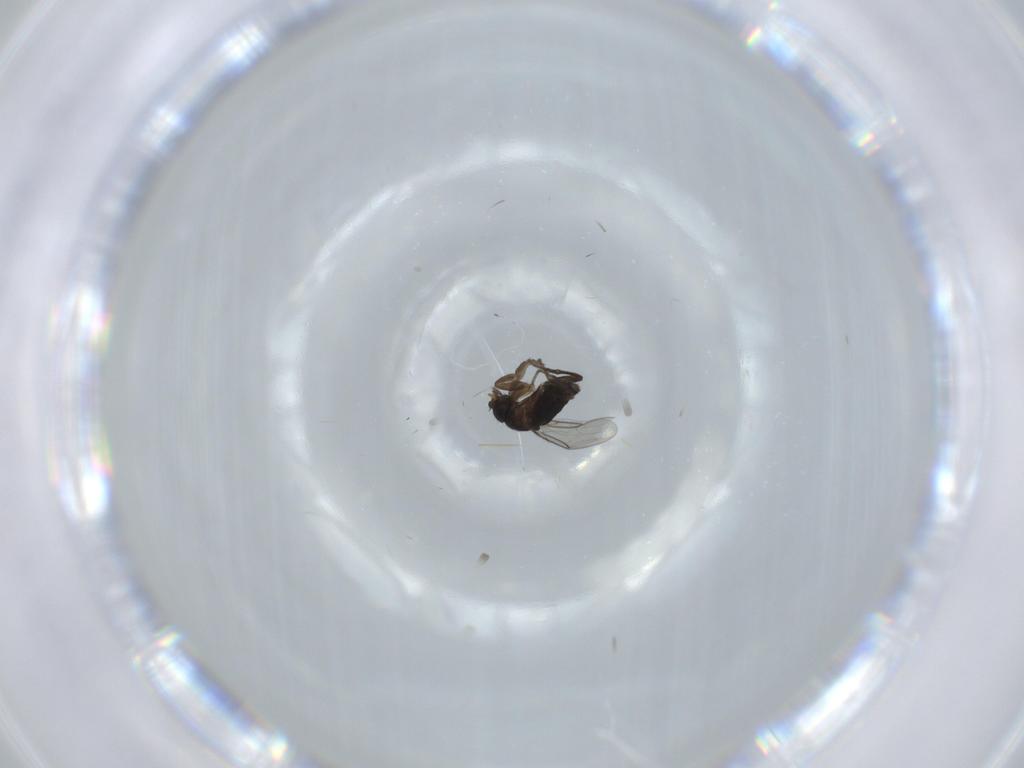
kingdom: Animalia
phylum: Arthropoda
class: Insecta
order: Diptera
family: Phoridae
